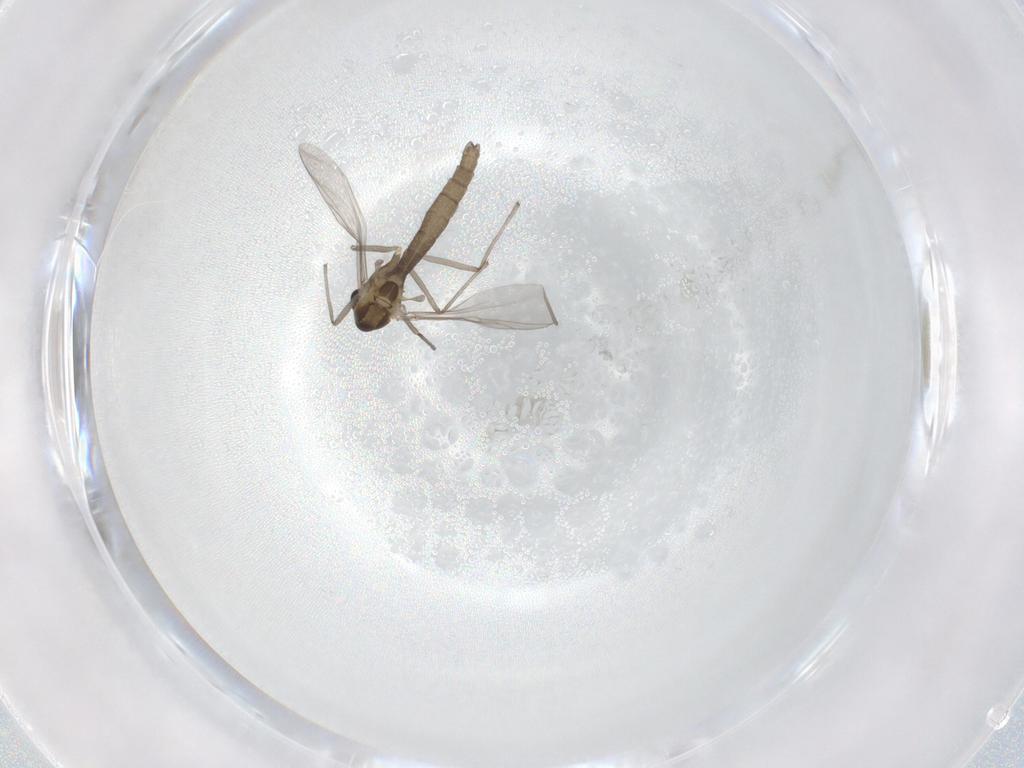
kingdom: Animalia
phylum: Arthropoda
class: Insecta
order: Diptera
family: Chironomidae
